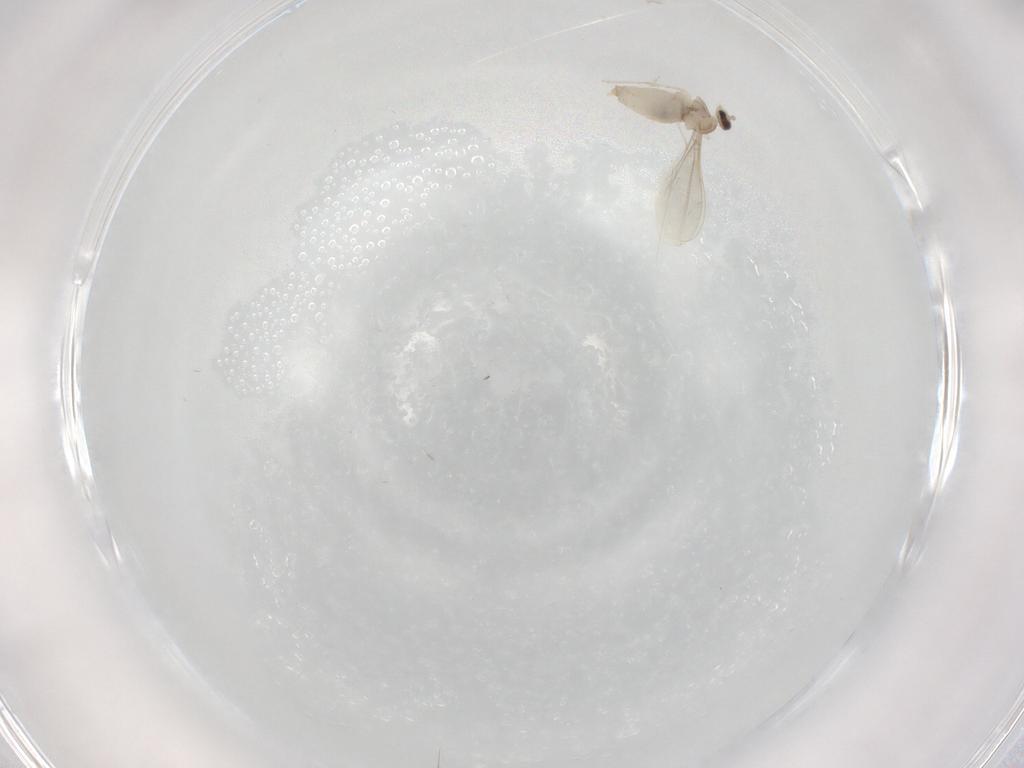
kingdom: Animalia
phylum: Arthropoda
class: Insecta
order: Diptera
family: Cecidomyiidae
